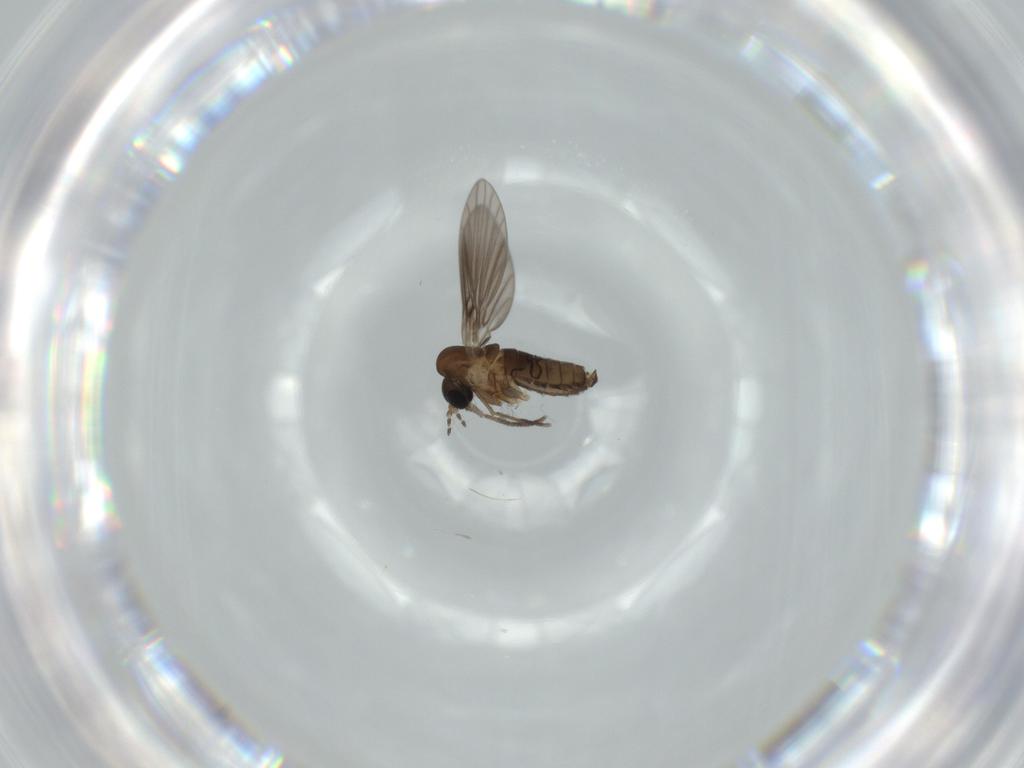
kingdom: Animalia
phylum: Arthropoda
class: Insecta
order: Diptera
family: Psychodidae
